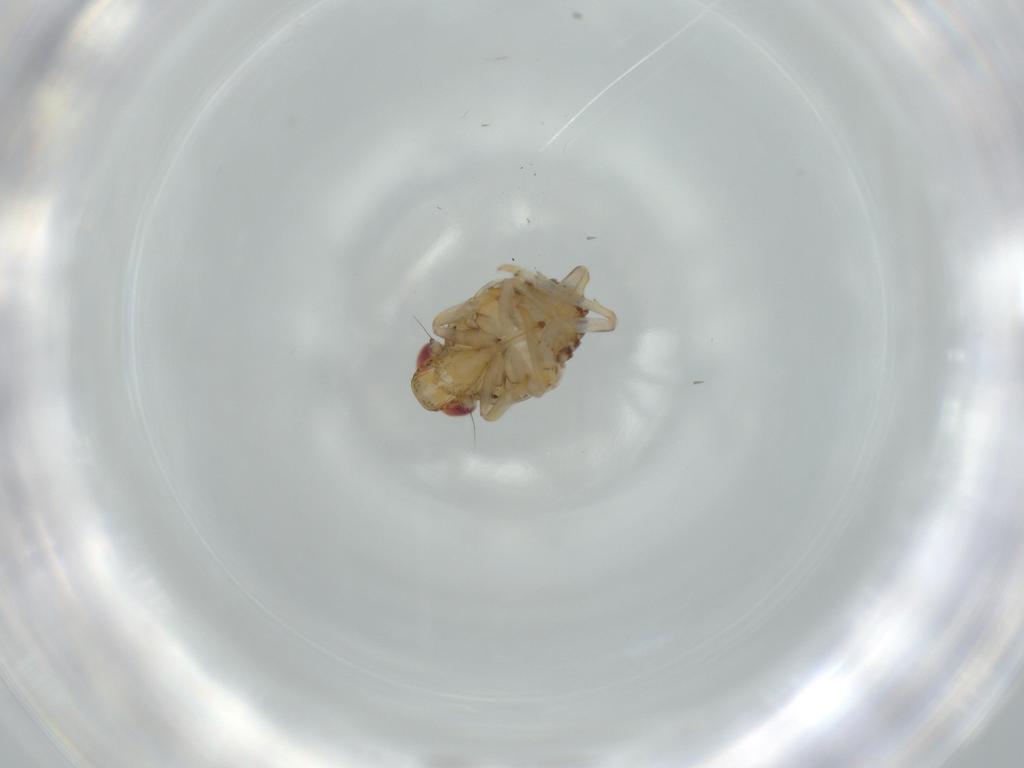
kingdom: Animalia
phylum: Arthropoda
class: Insecta
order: Hemiptera
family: Issidae
